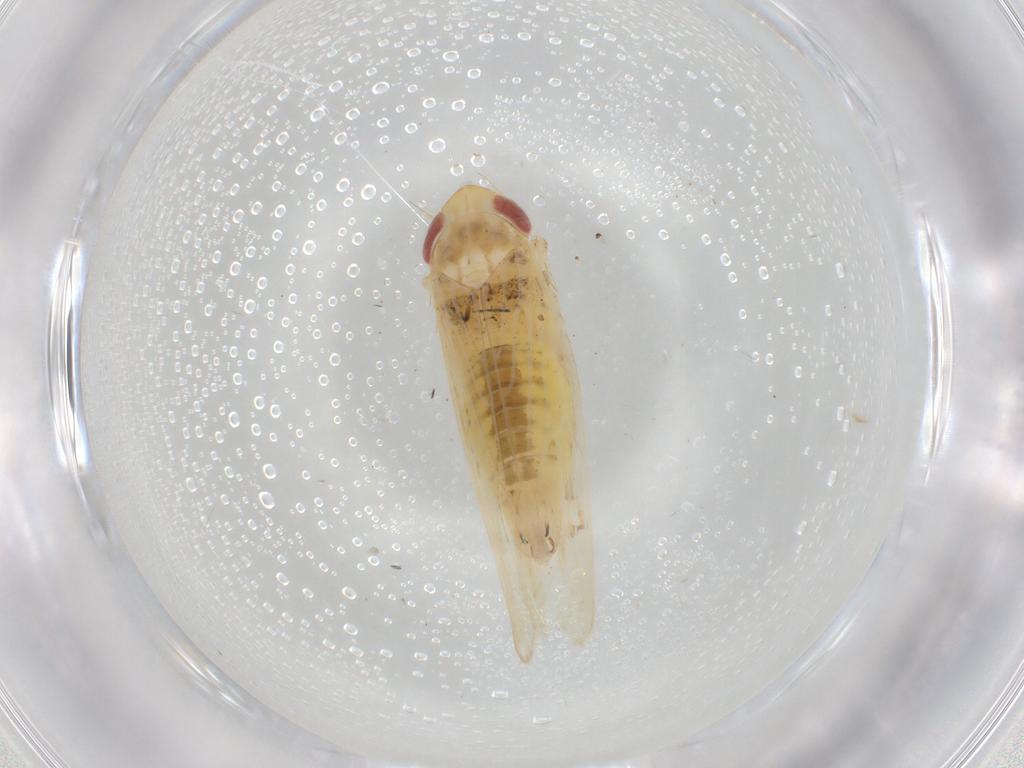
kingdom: Animalia
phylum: Arthropoda
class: Insecta
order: Hemiptera
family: Cicadellidae
